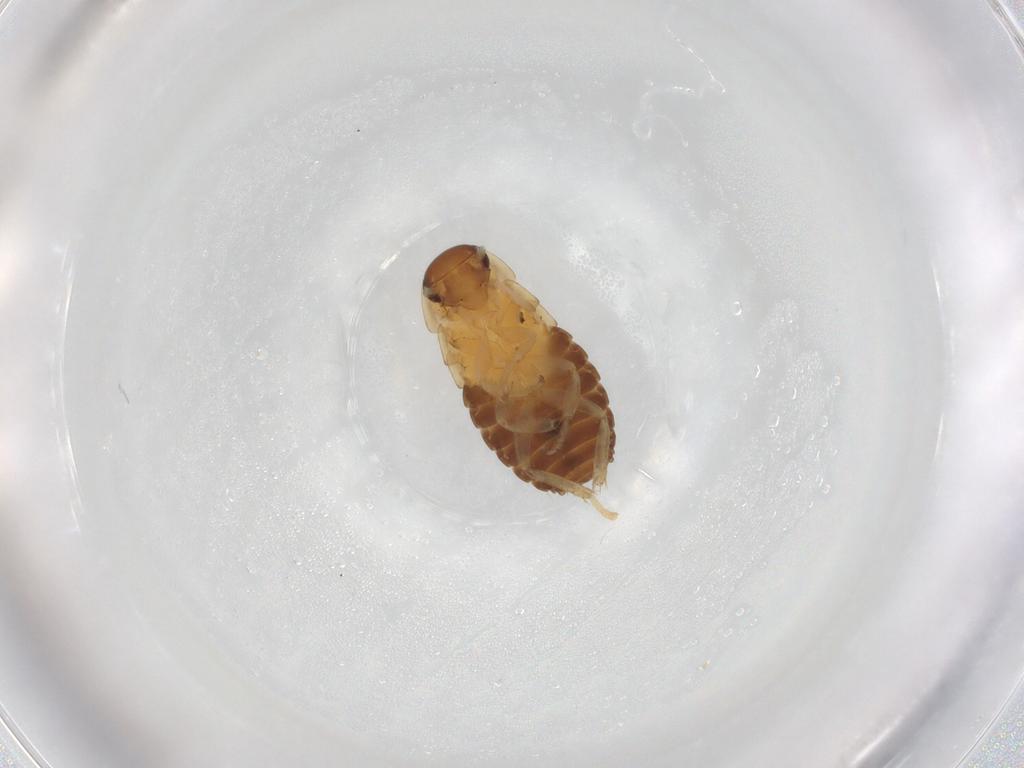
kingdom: Animalia
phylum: Arthropoda
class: Insecta
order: Blattodea
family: Ectobiidae
